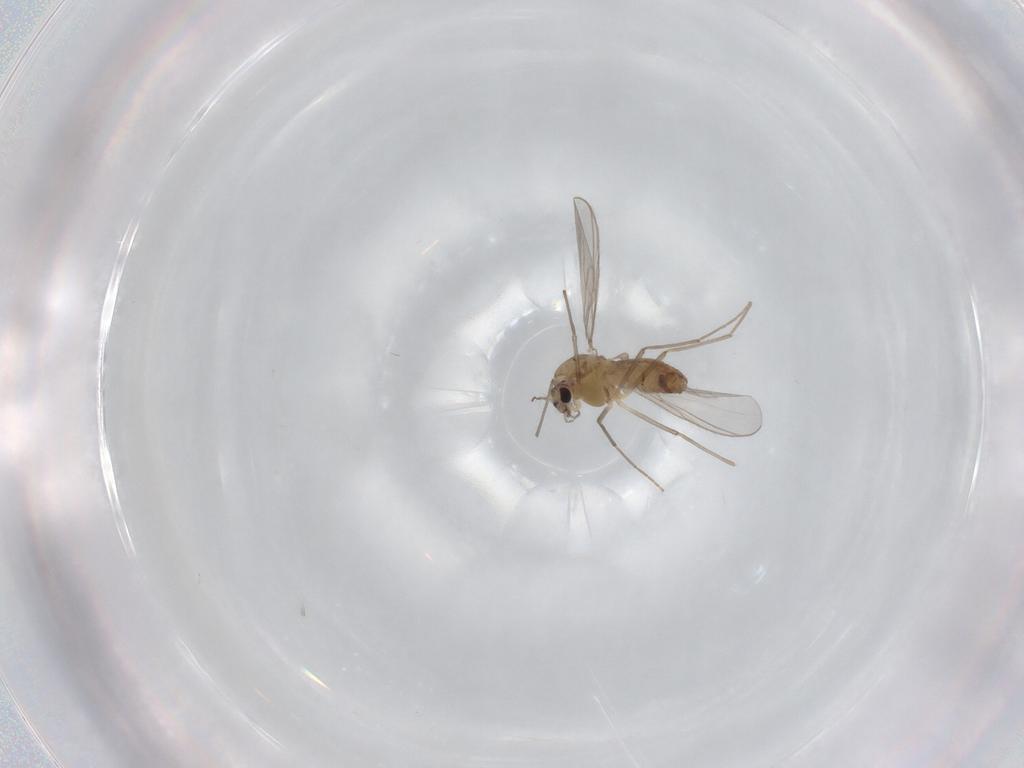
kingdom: Animalia
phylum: Arthropoda
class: Insecta
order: Diptera
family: Chironomidae
